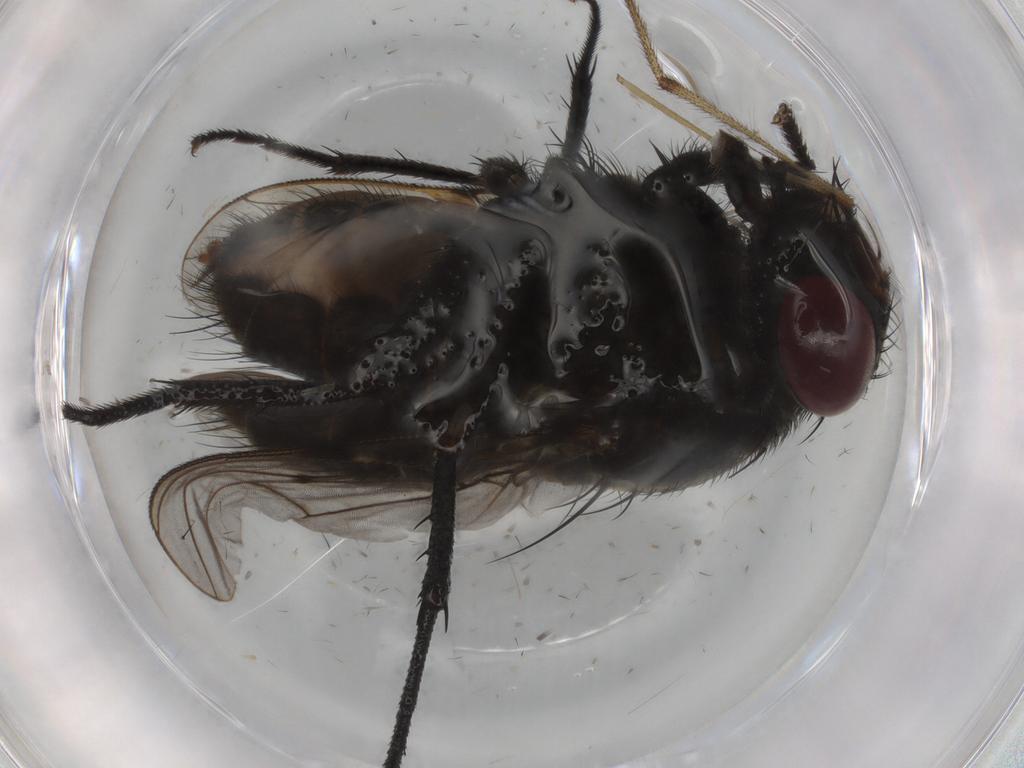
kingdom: Animalia
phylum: Arthropoda
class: Insecta
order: Diptera
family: Muscidae
